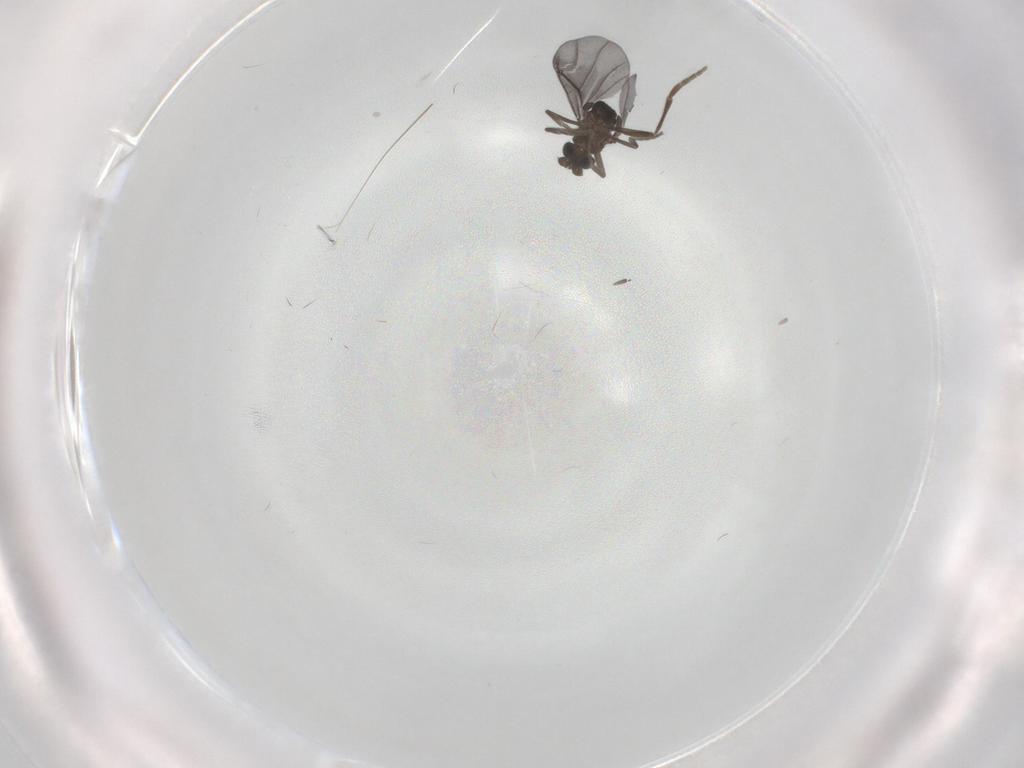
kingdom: Animalia
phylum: Arthropoda
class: Insecta
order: Diptera
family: Phoridae
